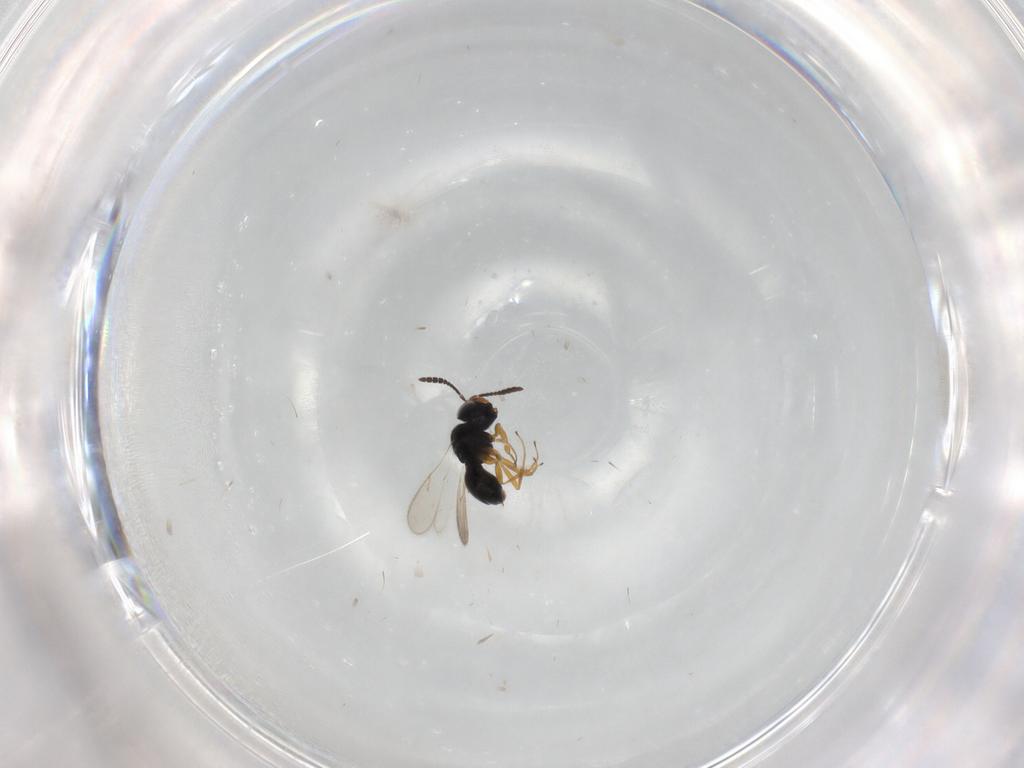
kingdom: Animalia
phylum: Arthropoda
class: Insecta
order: Hymenoptera
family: Scelionidae
